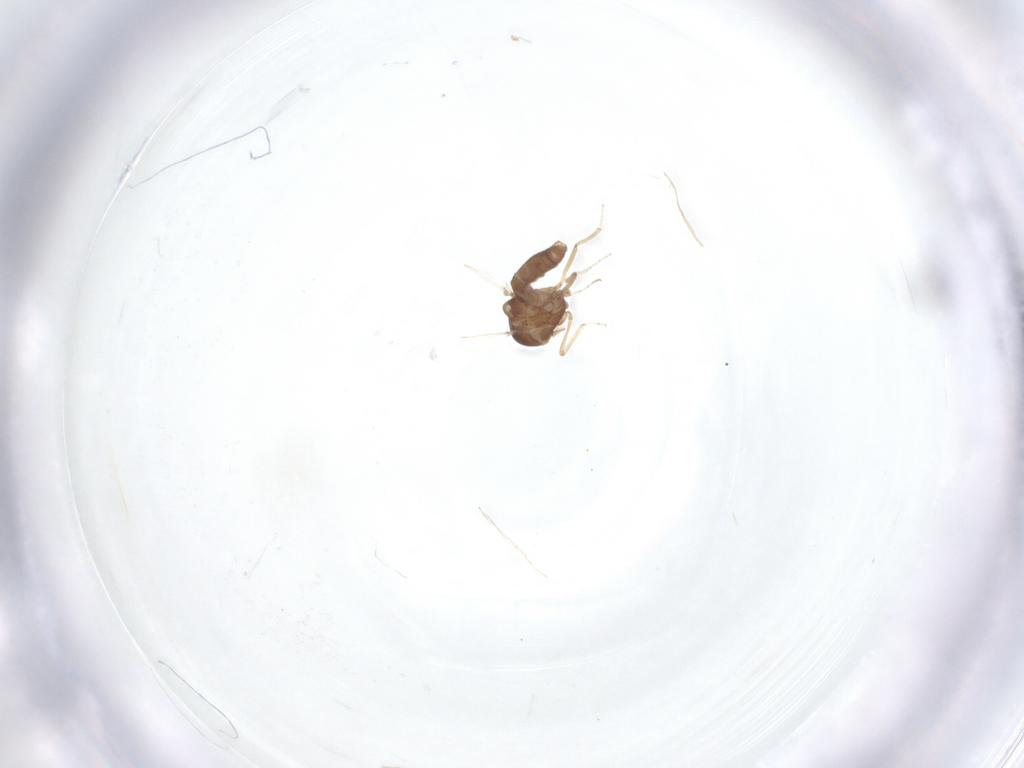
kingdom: Animalia
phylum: Arthropoda
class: Insecta
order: Diptera
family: Ceratopogonidae
